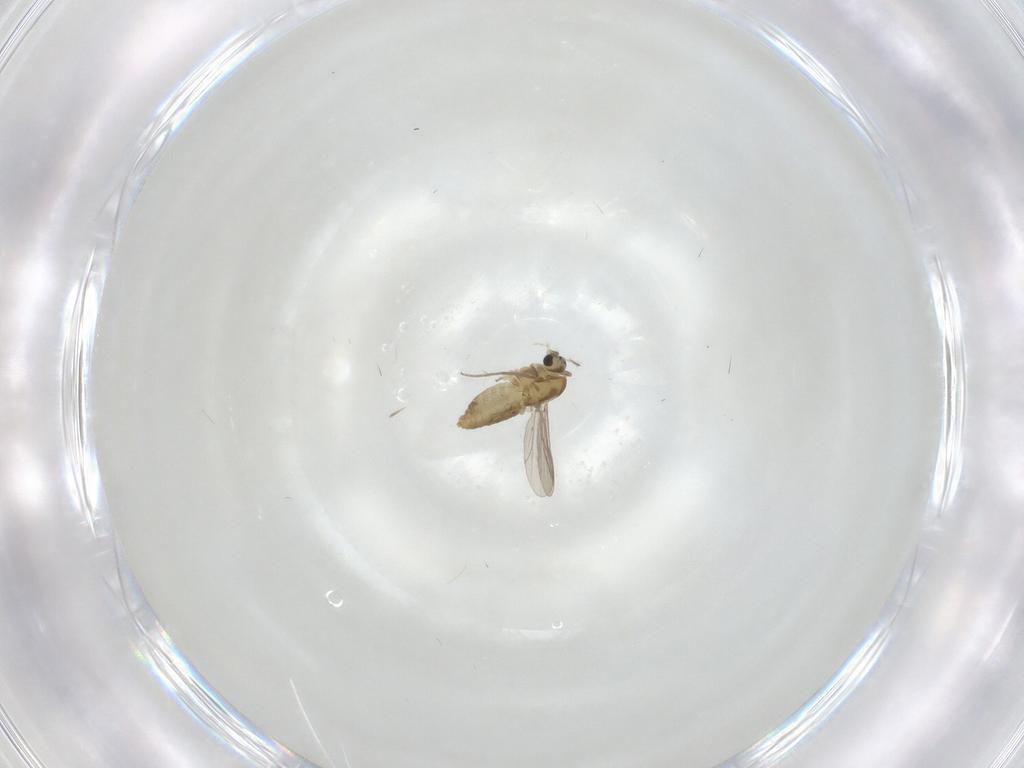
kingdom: Animalia
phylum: Arthropoda
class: Insecta
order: Diptera
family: Chironomidae
